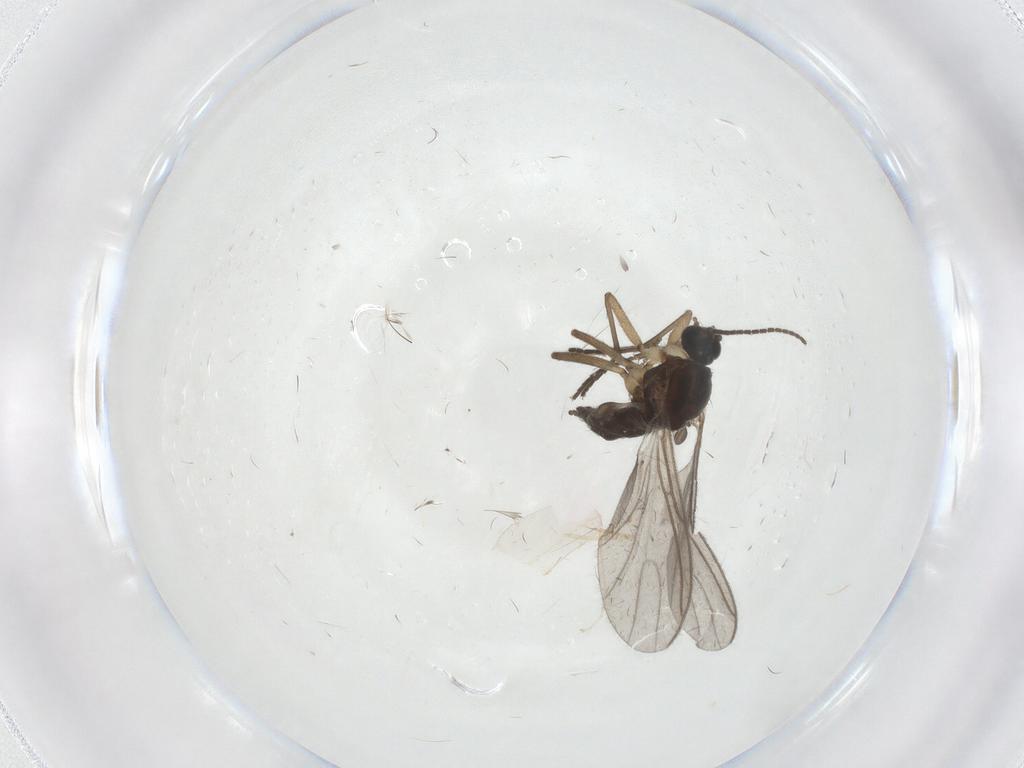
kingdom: Animalia
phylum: Arthropoda
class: Insecta
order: Diptera
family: Sciaridae
